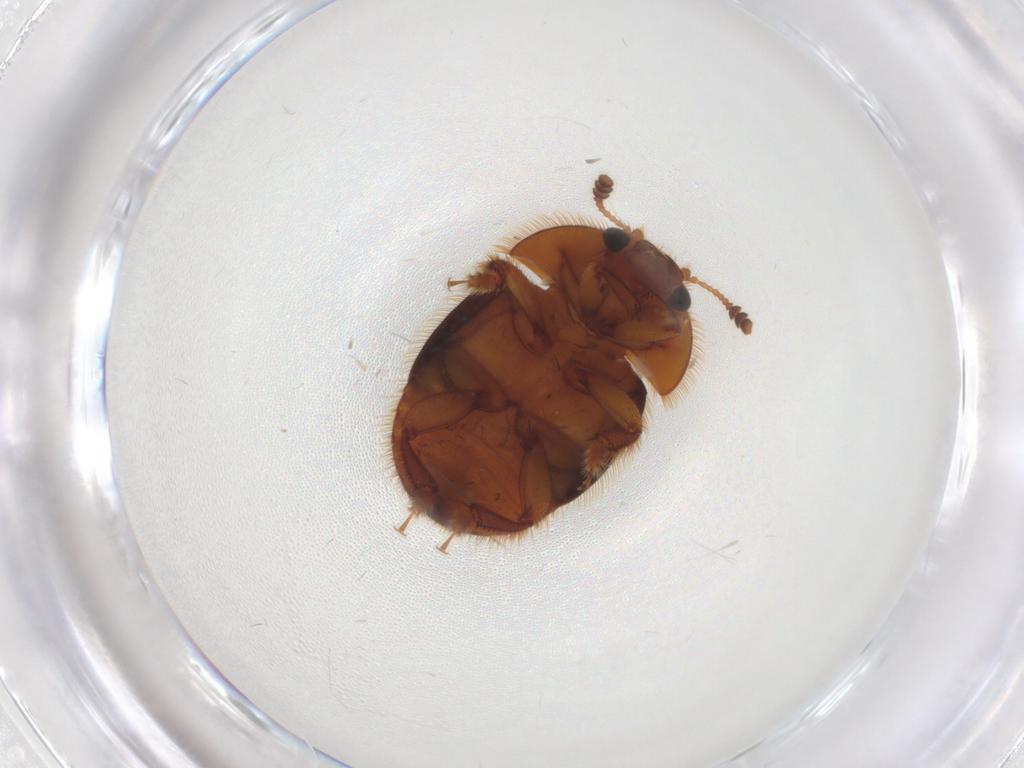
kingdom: Animalia
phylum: Arthropoda
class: Insecta
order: Coleoptera
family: Nitidulidae
